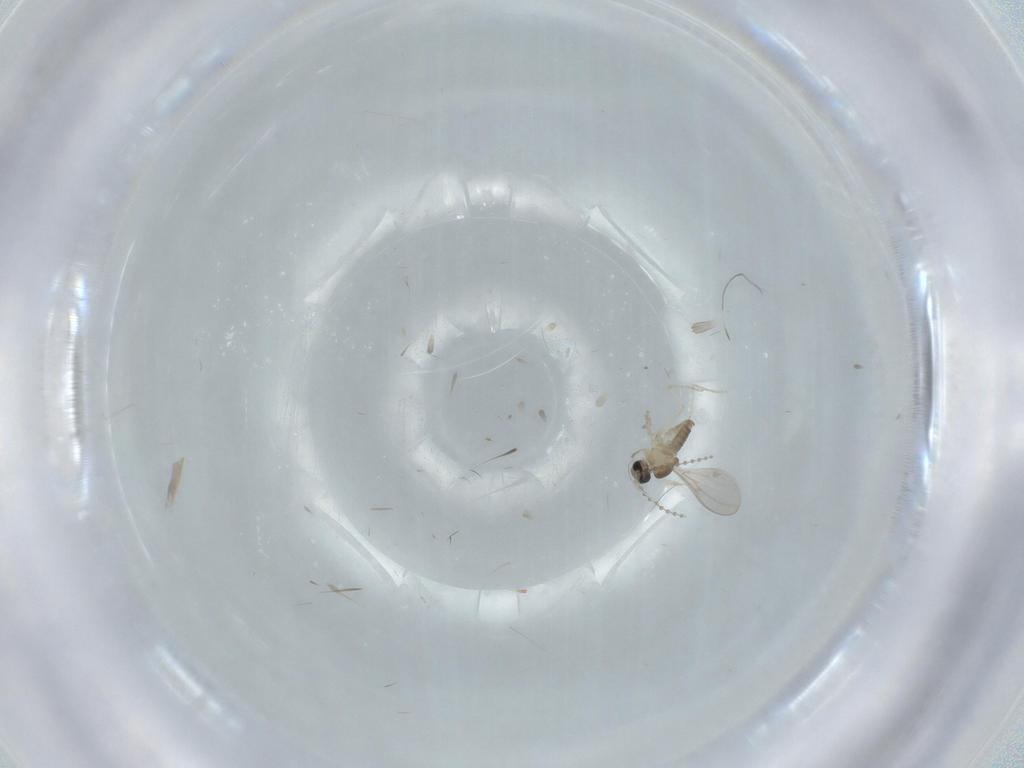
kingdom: Animalia
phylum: Arthropoda
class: Insecta
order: Diptera
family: Cecidomyiidae
